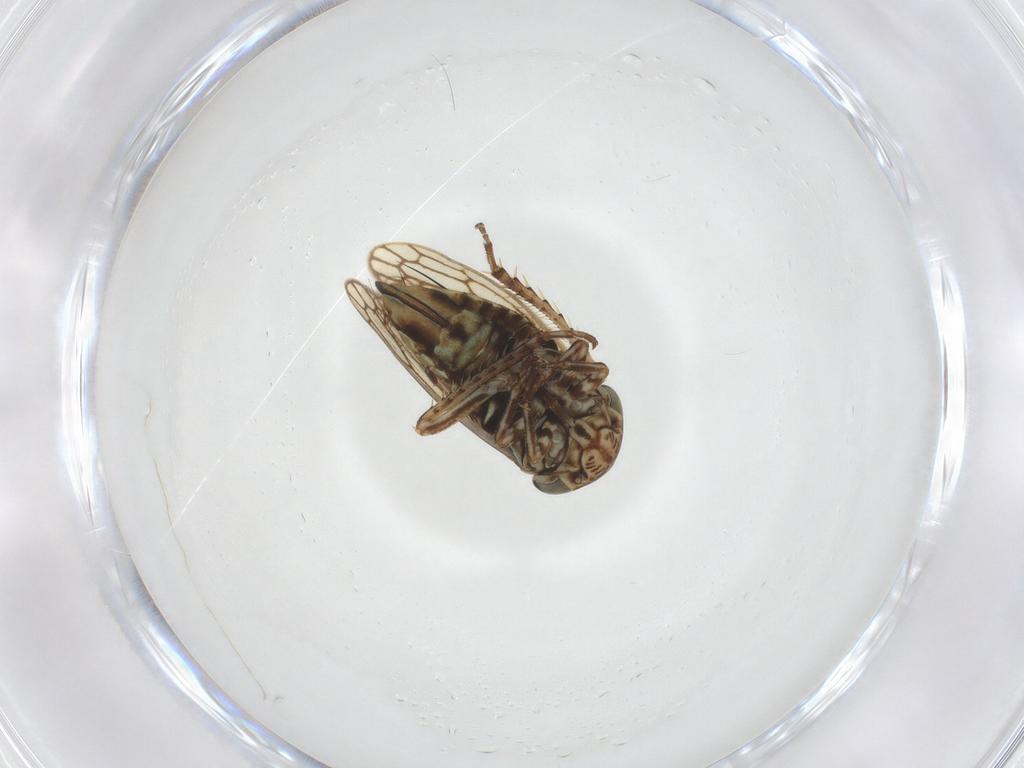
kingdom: Animalia
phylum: Arthropoda
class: Insecta
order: Hemiptera
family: Cicadellidae
